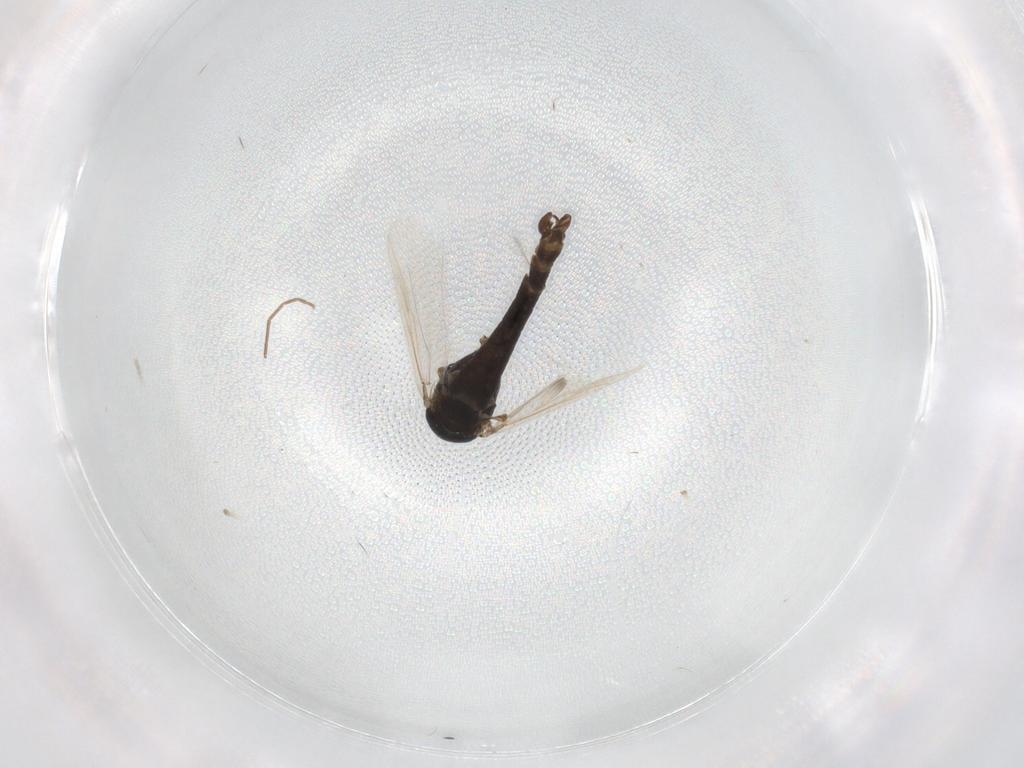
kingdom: Animalia
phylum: Arthropoda
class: Insecta
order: Diptera
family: Chironomidae
